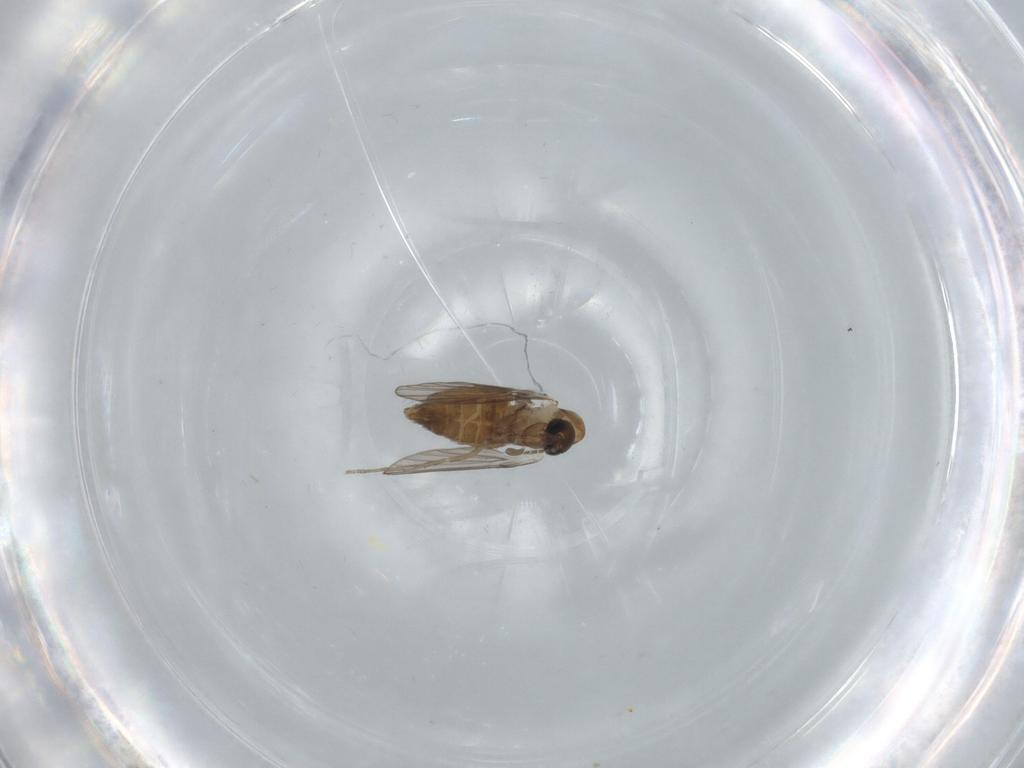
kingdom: Animalia
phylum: Arthropoda
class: Insecta
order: Diptera
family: Psychodidae
